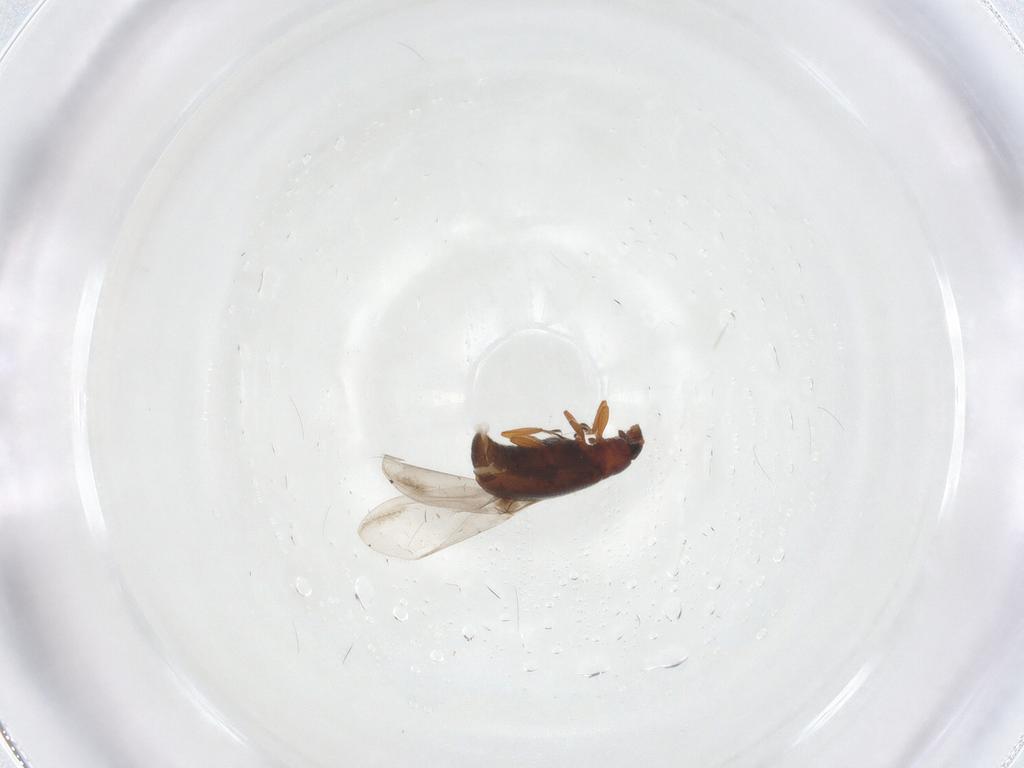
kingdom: Animalia
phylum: Arthropoda
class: Insecta
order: Coleoptera
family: Latridiidae
